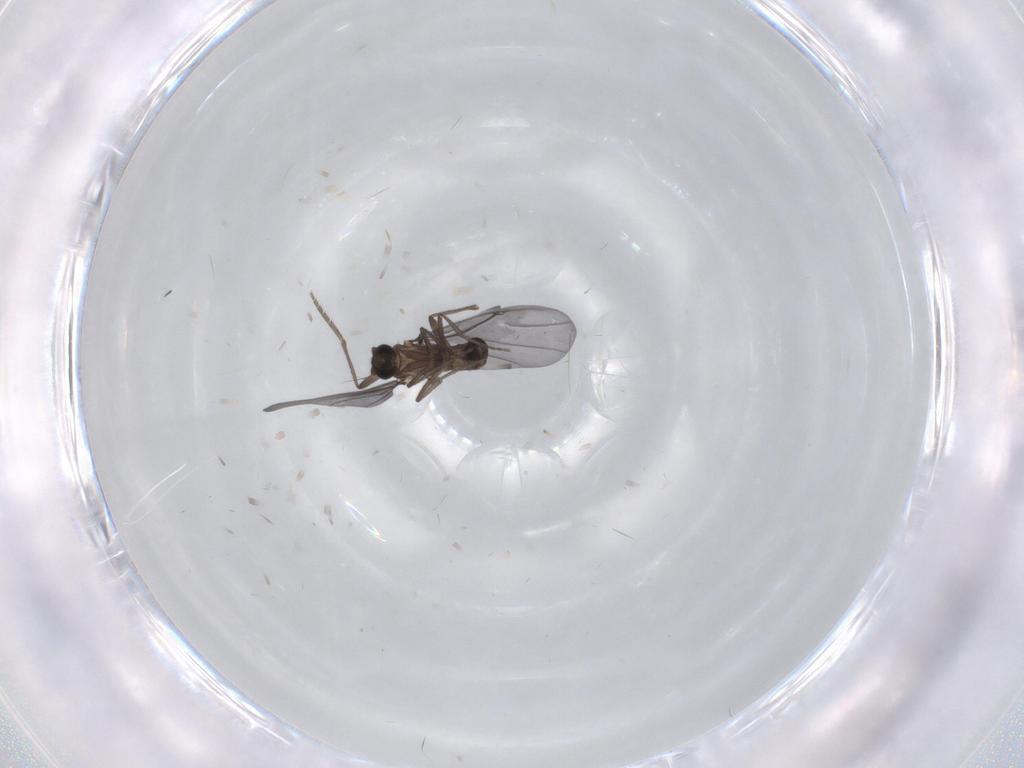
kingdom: Animalia
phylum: Arthropoda
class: Insecta
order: Diptera
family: Phoridae
